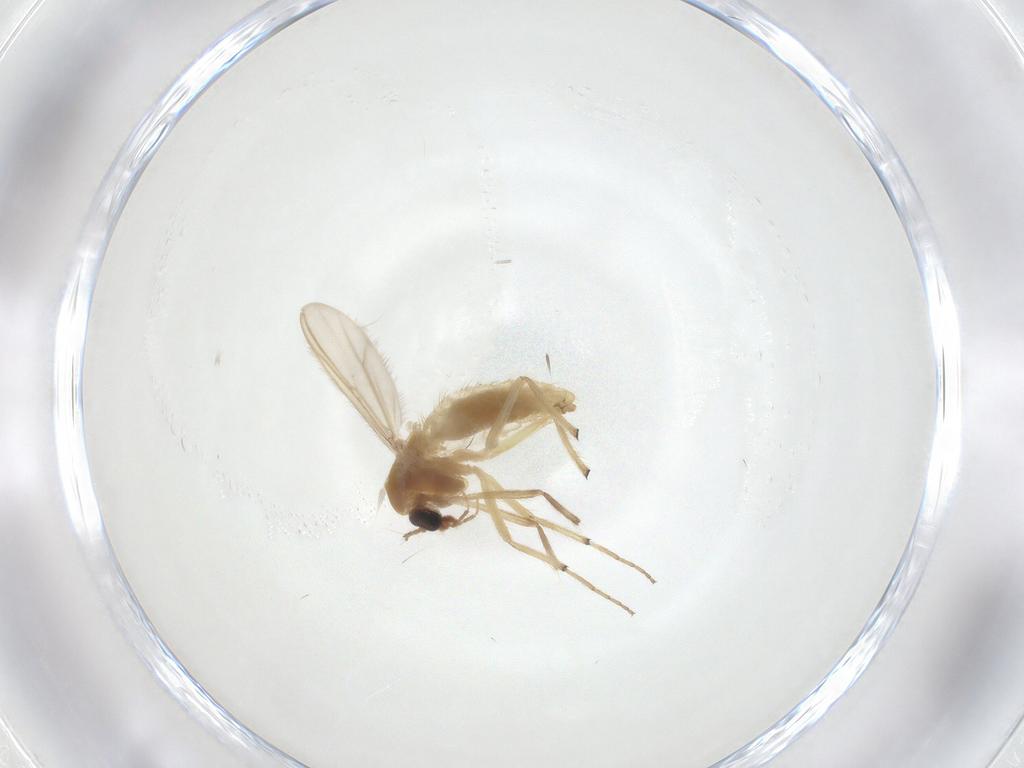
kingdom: Animalia
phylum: Arthropoda
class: Insecta
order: Diptera
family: Chironomidae
